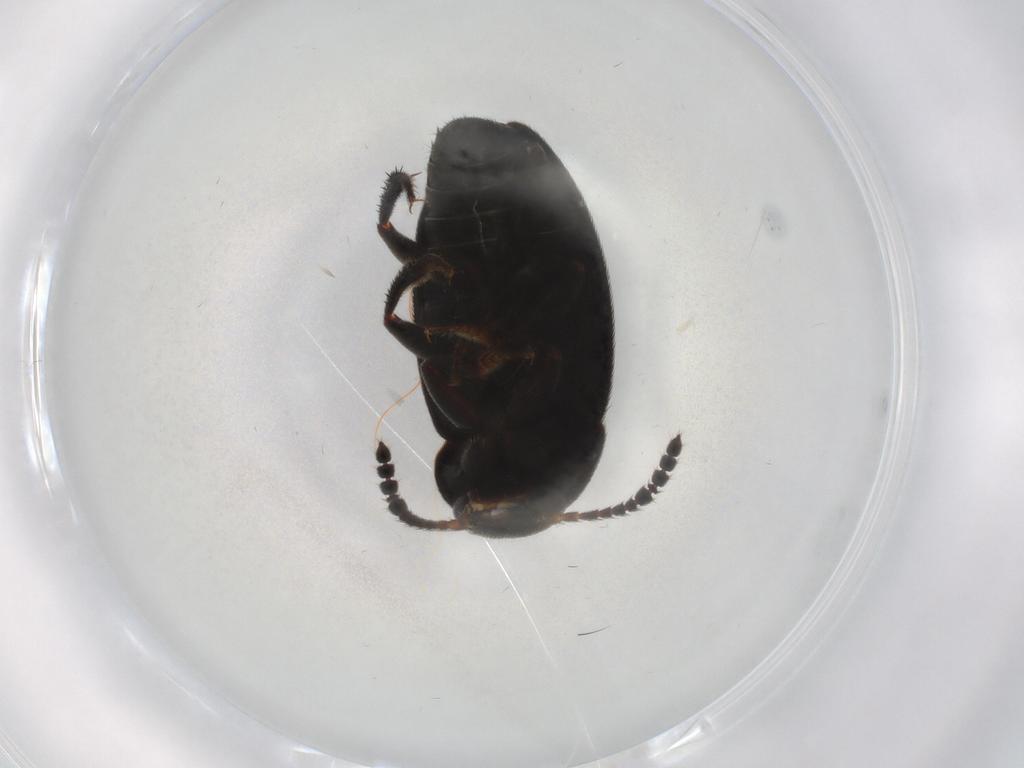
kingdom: Animalia
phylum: Arthropoda
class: Insecta
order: Coleoptera
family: Leiodidae
